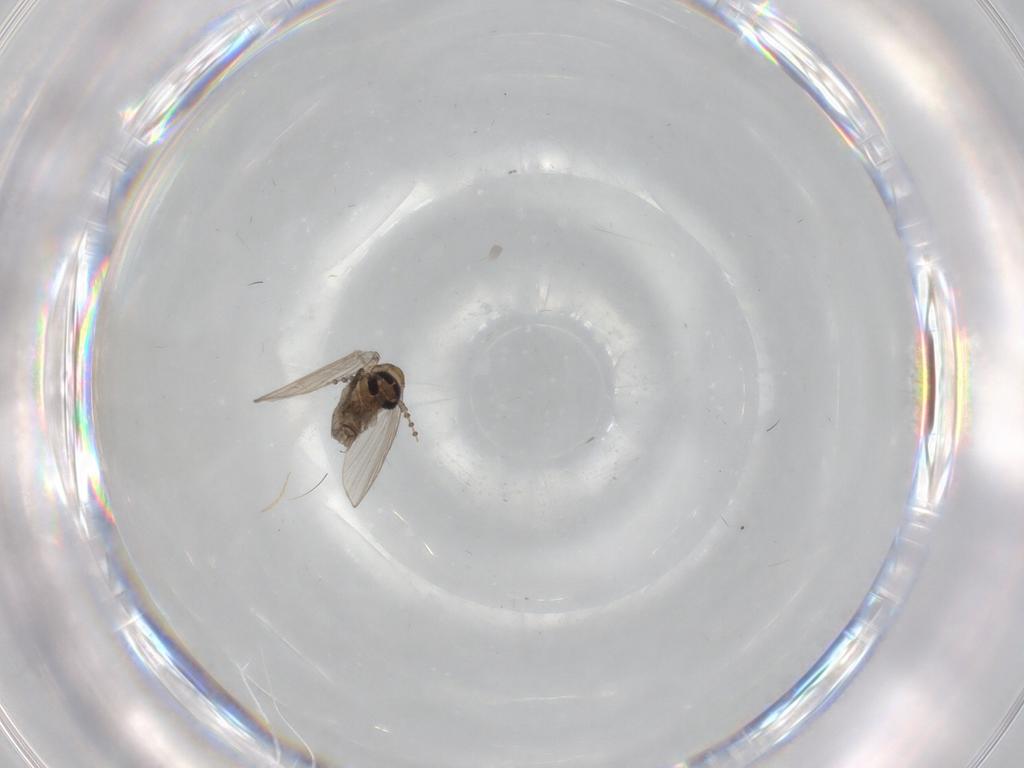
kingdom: Animalia
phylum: Arthropoda
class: Insecta
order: Diptera
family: Psychodidae
